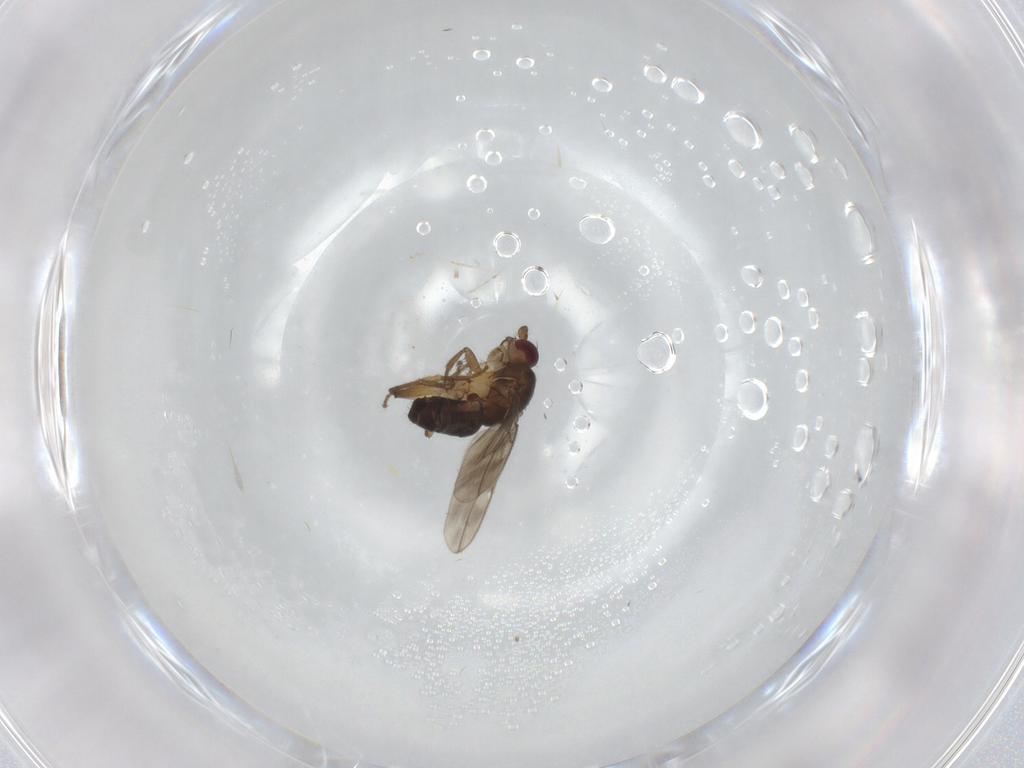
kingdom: Animalia
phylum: Arthropoda
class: Insecta
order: Diptera
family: Sphaeroceridae
